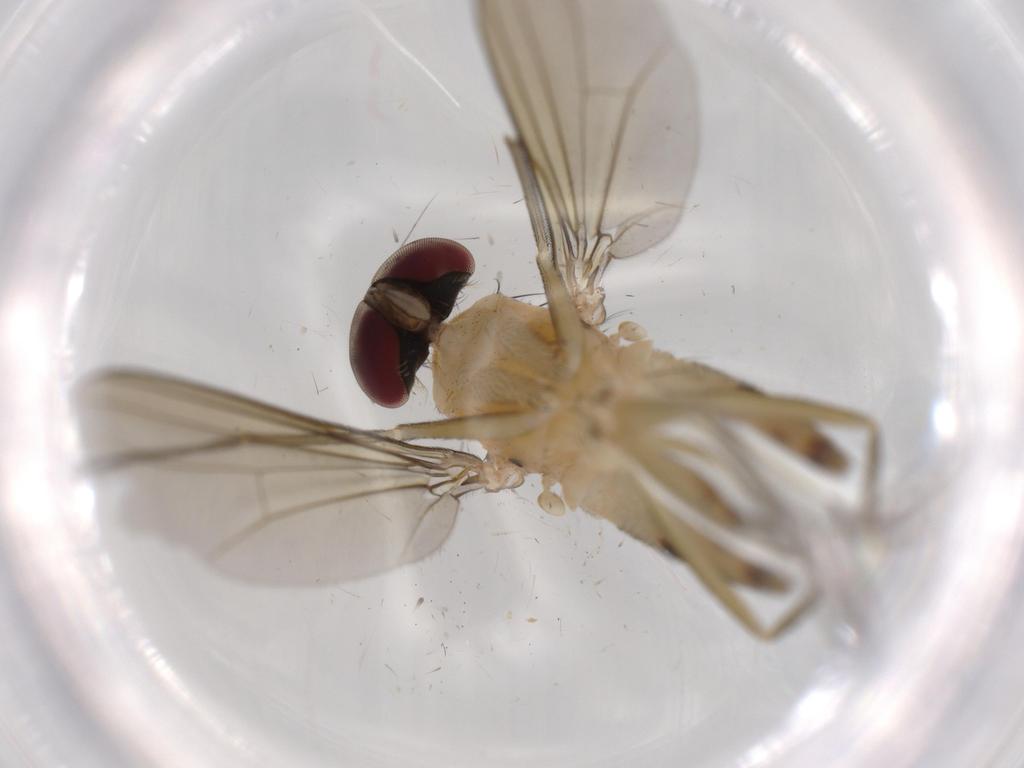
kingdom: Animalia
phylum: Arthropoda
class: Insecta
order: Diptera
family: Dolichopodidae
